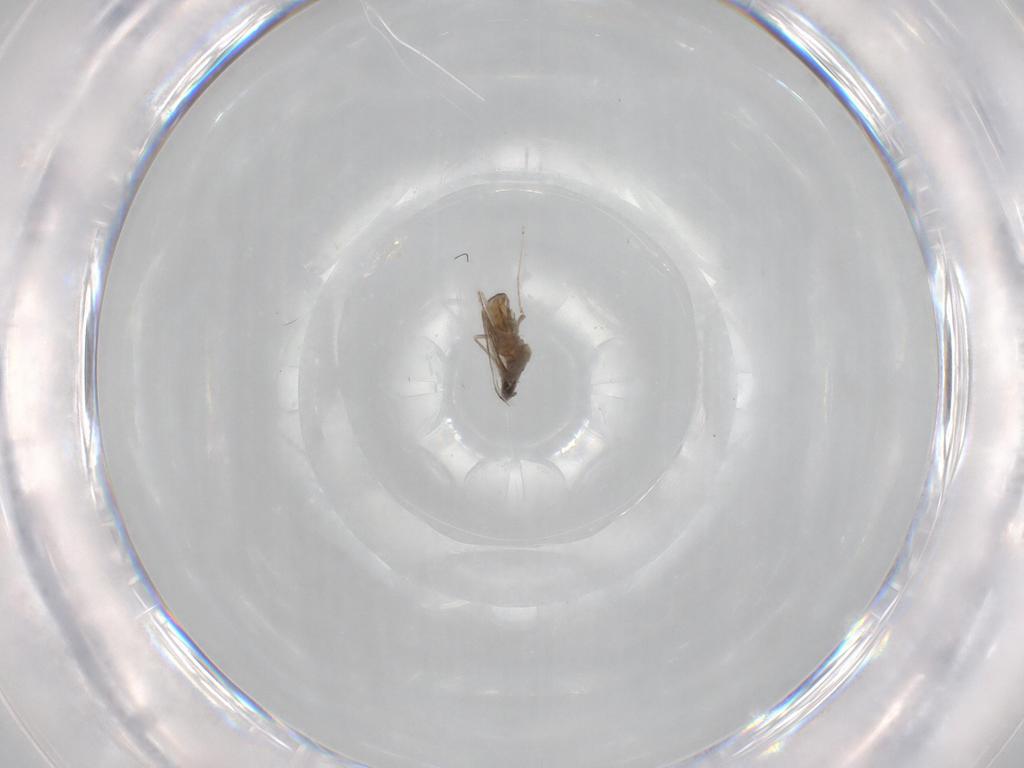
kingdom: Animalia
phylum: Arthropoda
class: Insecta
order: Diptera
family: Cecidomyiidae
